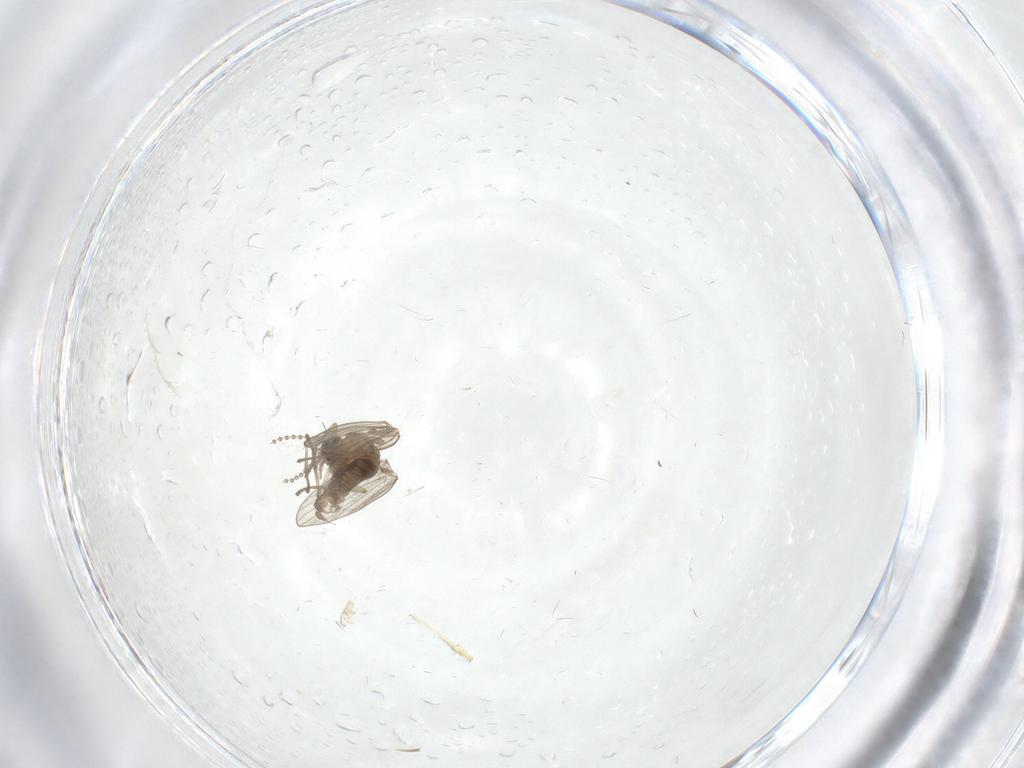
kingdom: Animalia
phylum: Arthropoda
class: Insecta
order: Diptera
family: Psychodidae
